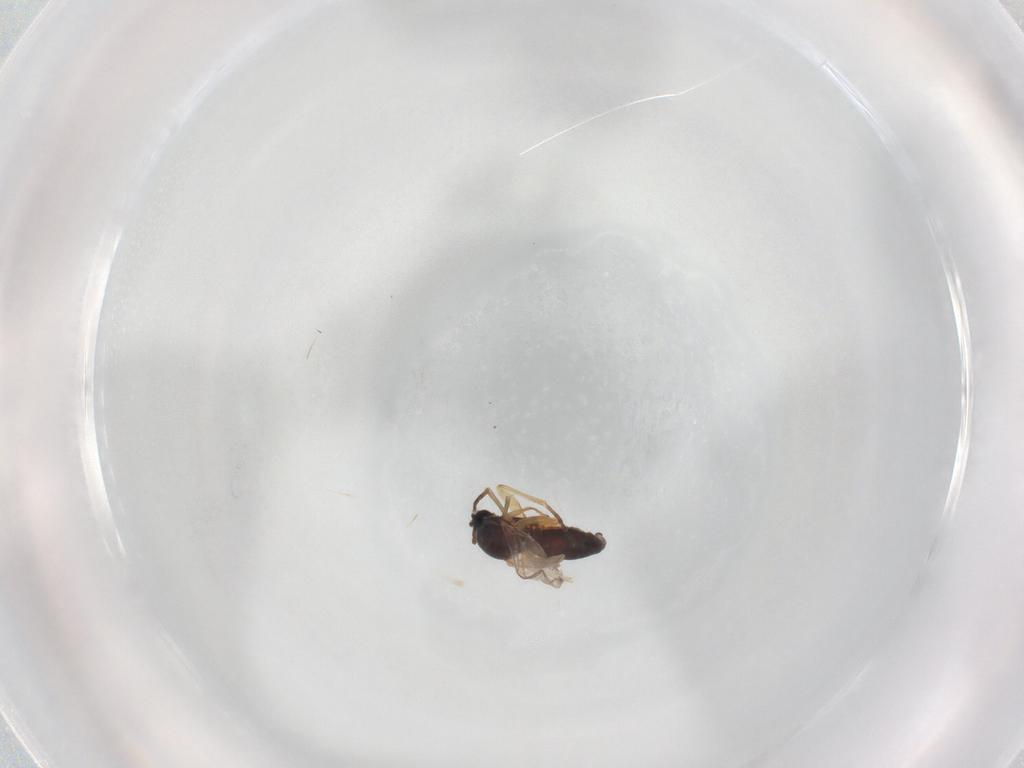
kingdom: Animalia
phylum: Arthropoda
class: Insecta
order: Diptera
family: Sciaridae
